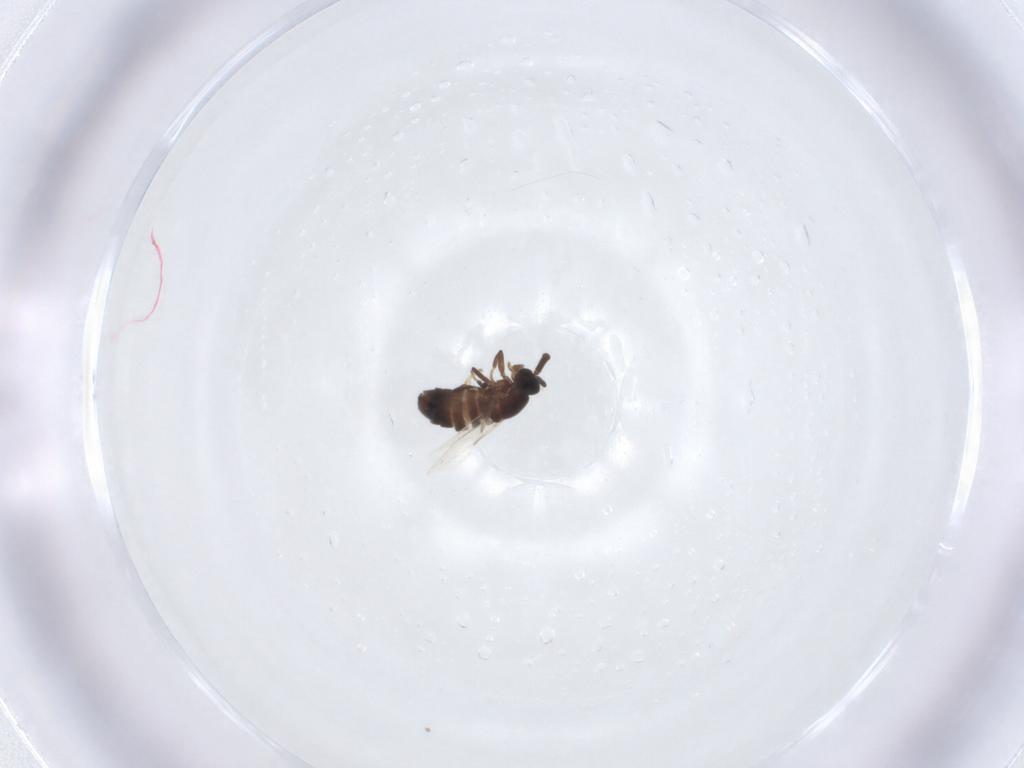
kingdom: Animalia
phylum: Arthropoda
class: Insecta
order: Diptera
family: Scatopsidae
